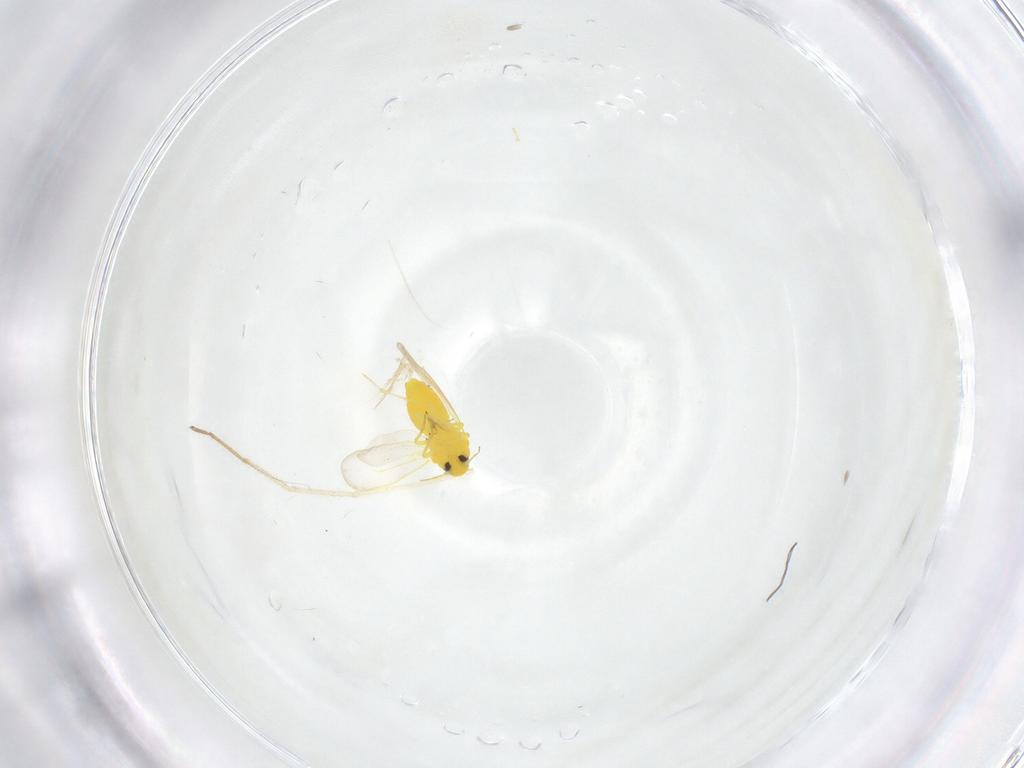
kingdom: Animalia
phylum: Arthropoda
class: Insecta
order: Hemiptera
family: Aleyrodidae
